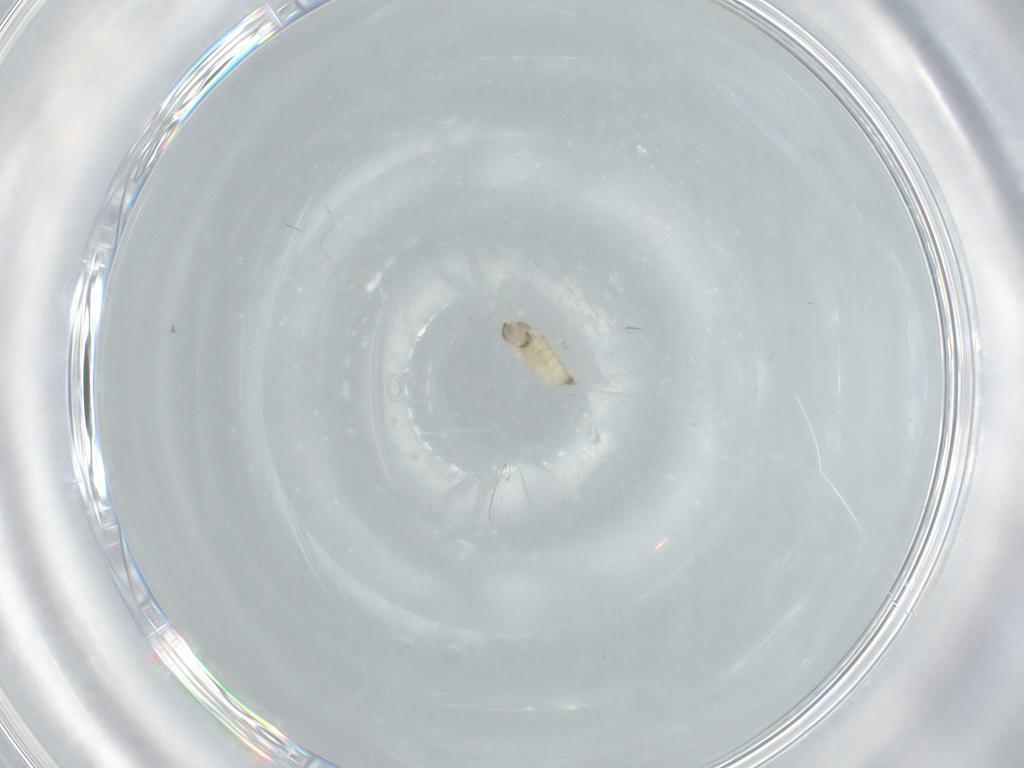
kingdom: Animalia
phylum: Arthropoda
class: Insecta
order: Diptera
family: Cecidomyiidae
